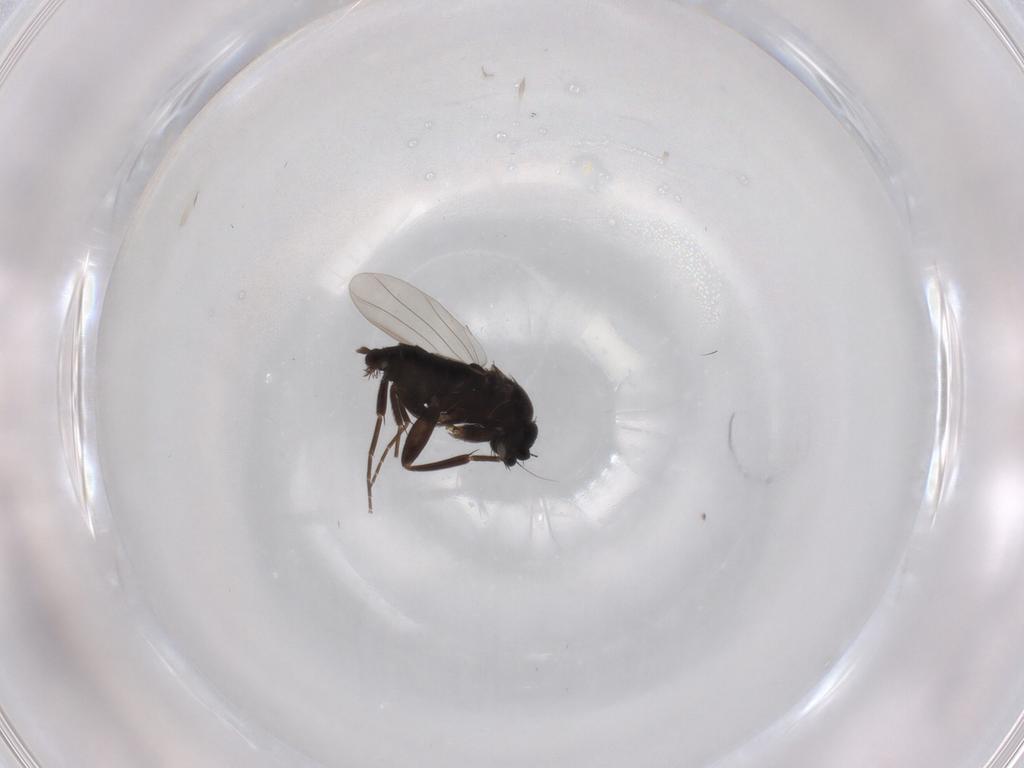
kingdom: Animalia
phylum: Arthropoda
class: Insecta
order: Diptera
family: Phoridae
